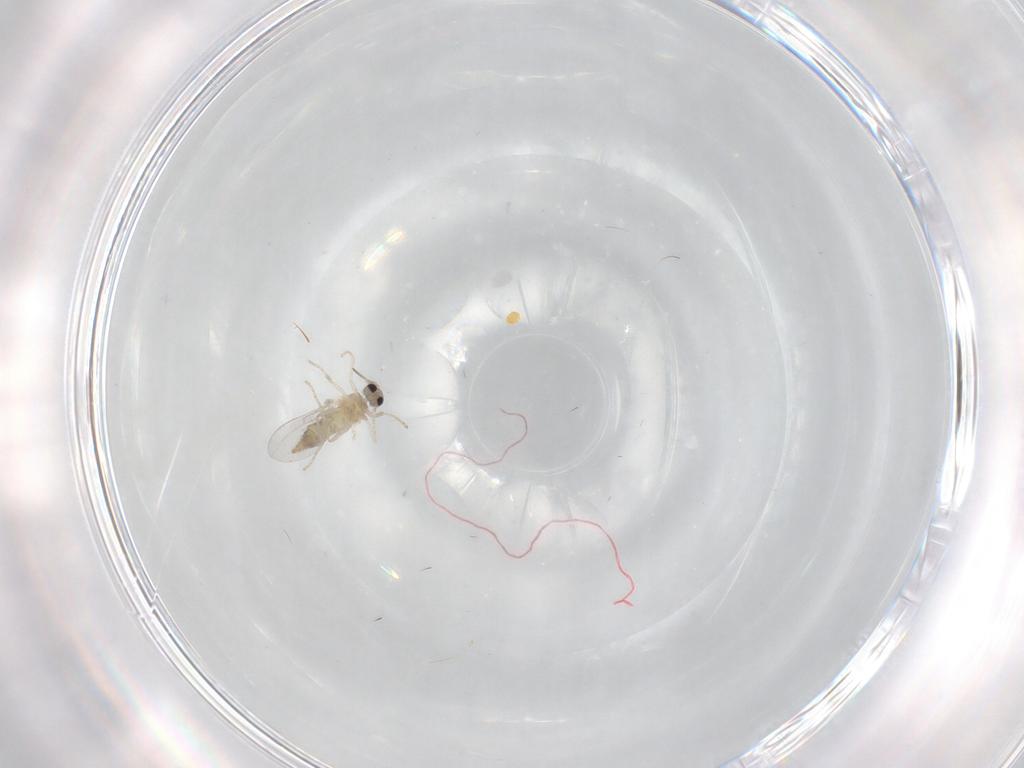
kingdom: Animalia
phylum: Arthropoda
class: Insecta
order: Diptera
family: Cecidomyiidae
